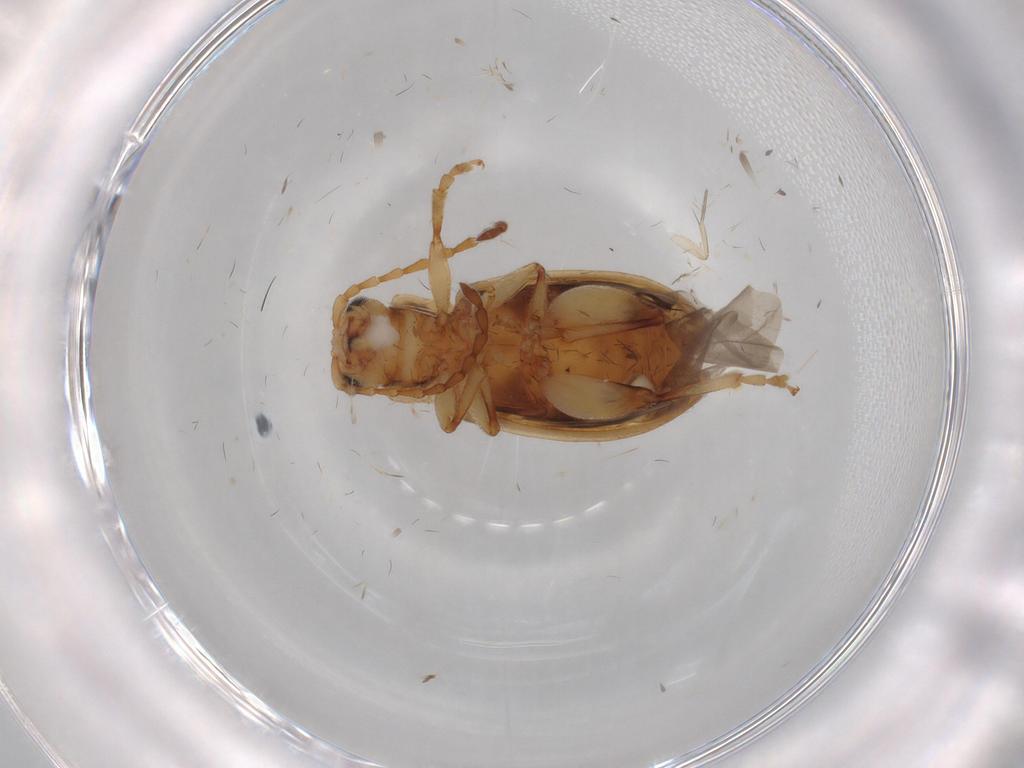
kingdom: Animalia
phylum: Arthropoda
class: Insecta
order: Coleoptera
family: Chrysomelidae
